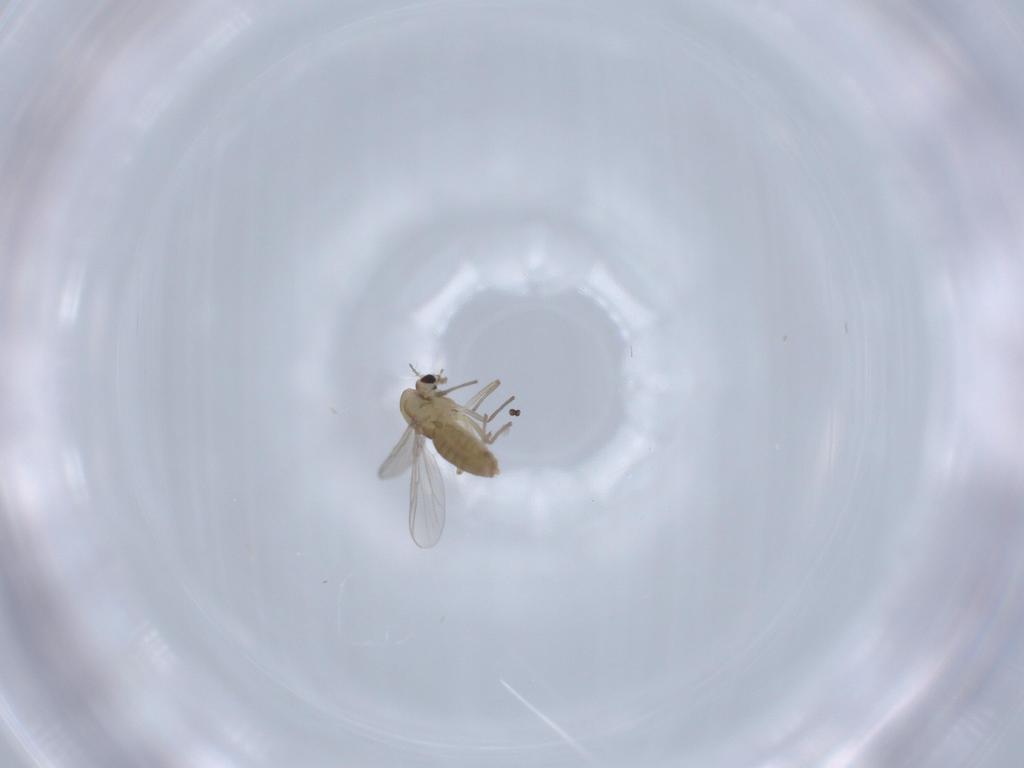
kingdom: Animalia
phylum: Arthropoda
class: Insecta
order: Diptera
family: Chironomidae
